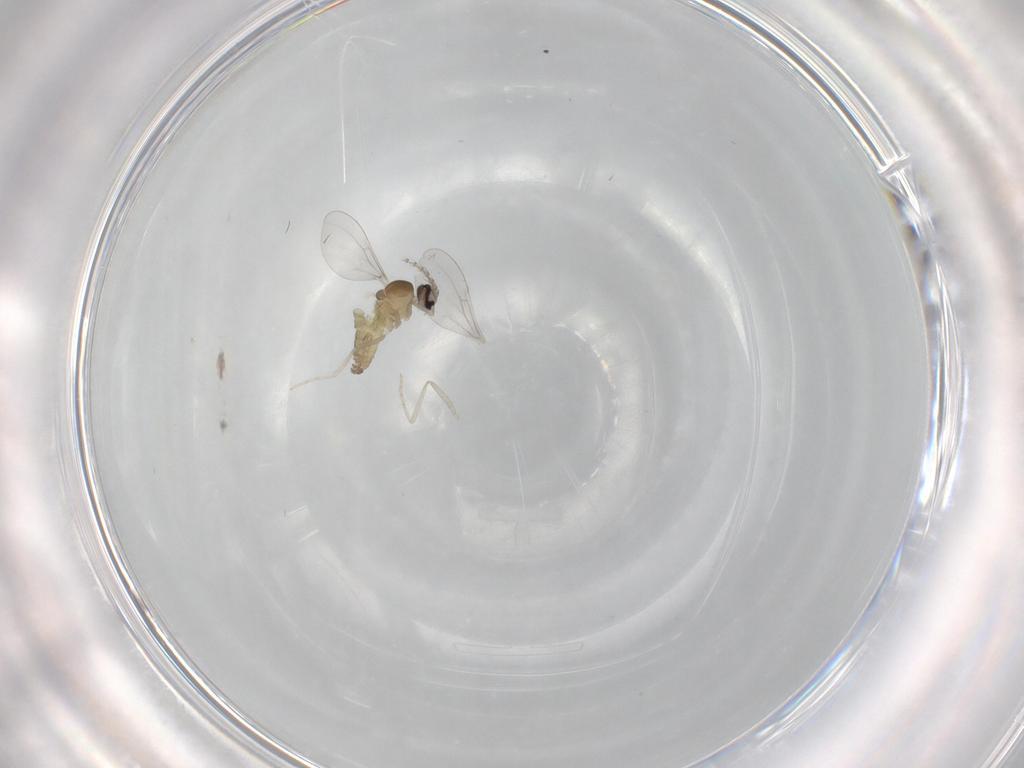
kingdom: Animalia
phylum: Arthropoda
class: Insecta
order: Diptera
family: Cecidomyiidae
